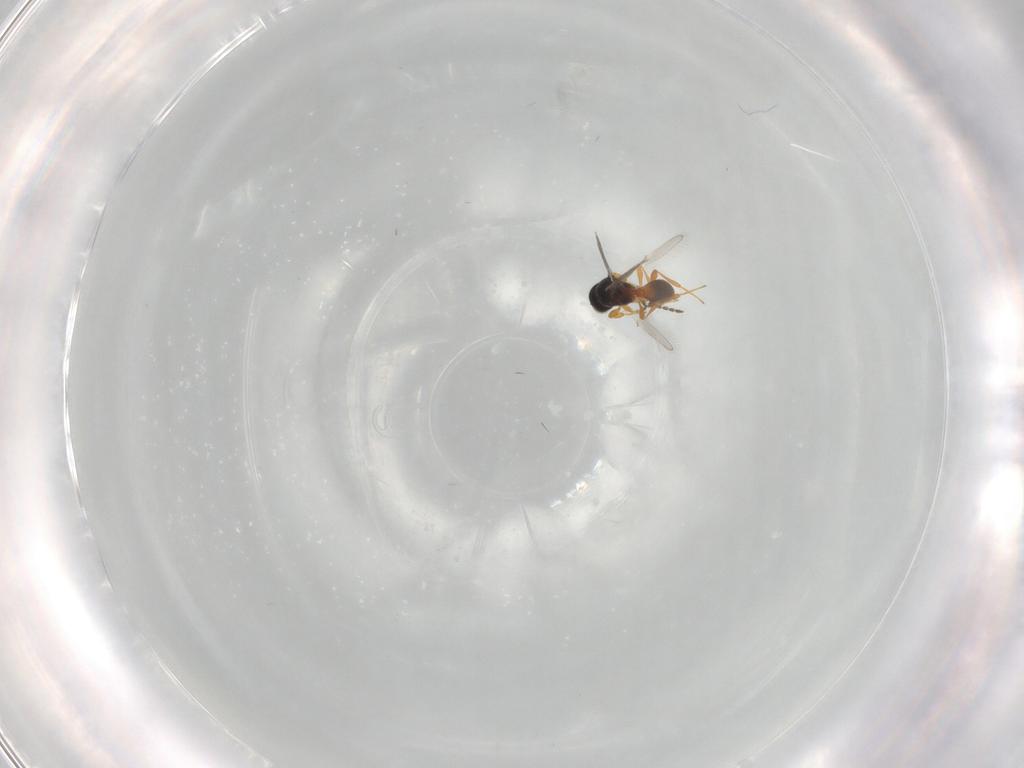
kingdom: Animalia
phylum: Arthropoda
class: Insecta
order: Hymenoptera
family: Platygastridae
